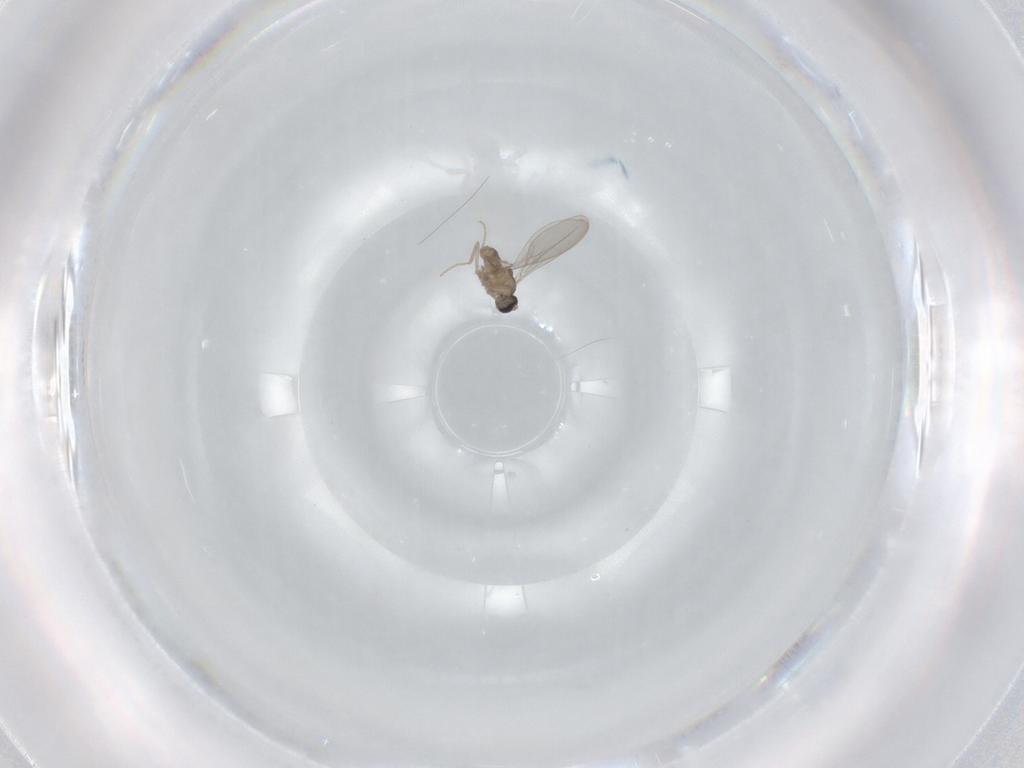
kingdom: Animalia
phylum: Arthropoda
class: Insecta
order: Diptera
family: Cecidomyiidae
